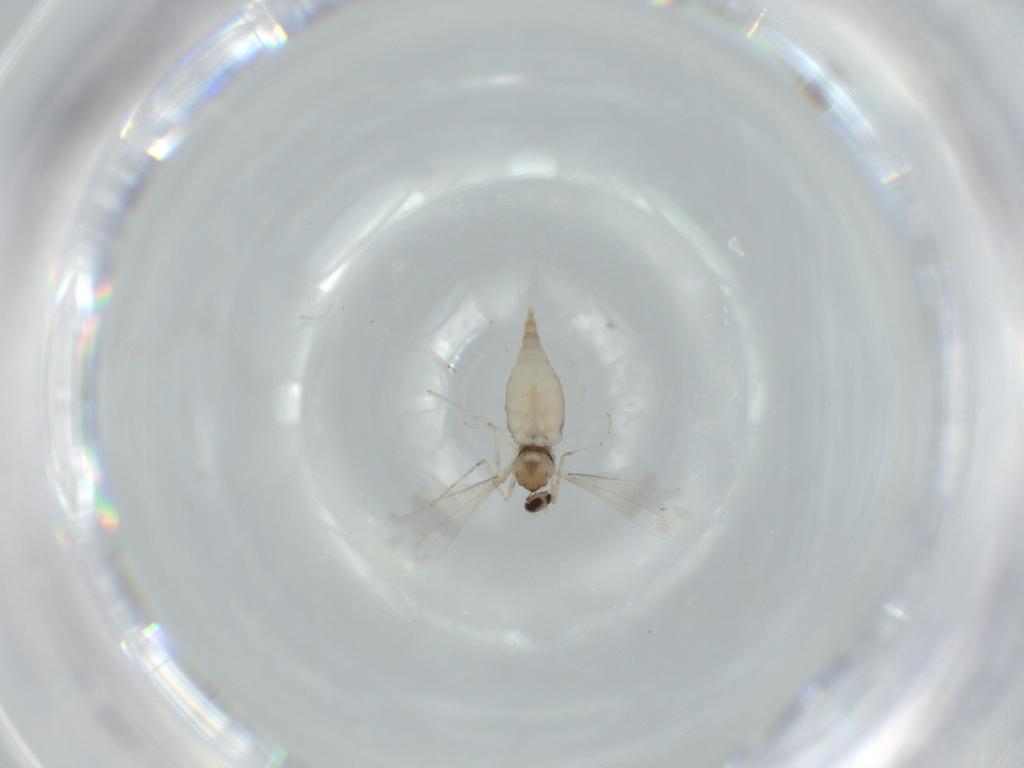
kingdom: Animalia
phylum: Arthropoda
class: Insecta
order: Diptera
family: Cecidomyiidae
